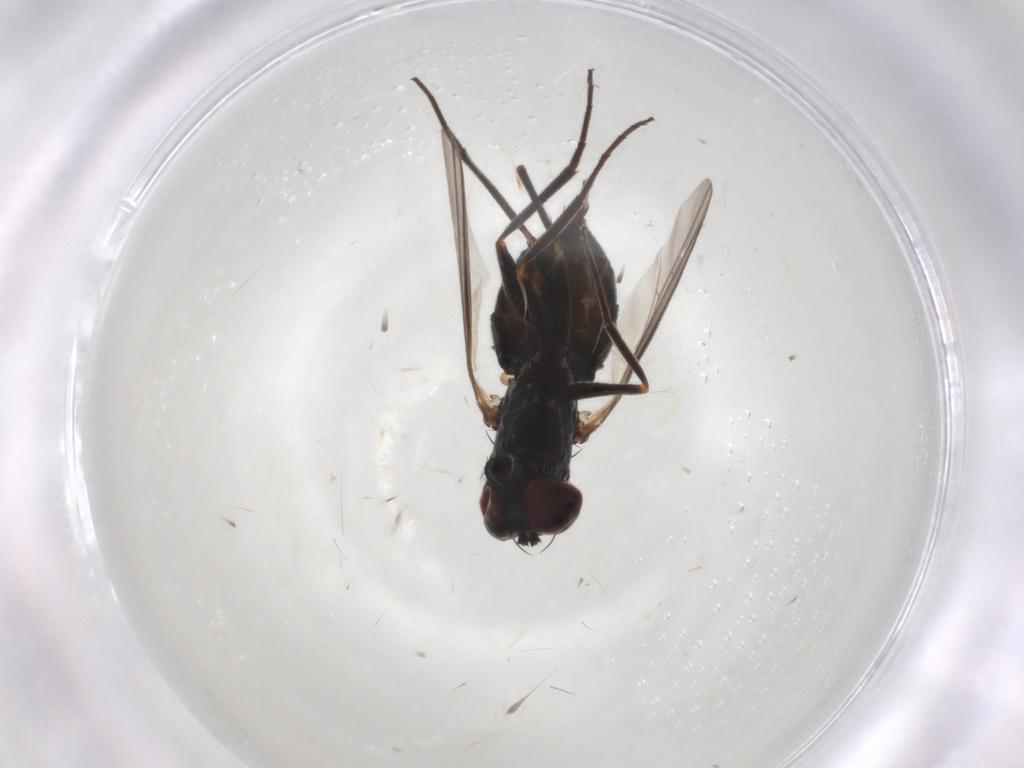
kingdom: Animalia
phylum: Arthropoda
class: Insecta
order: Diptera
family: Dolichopodidae
